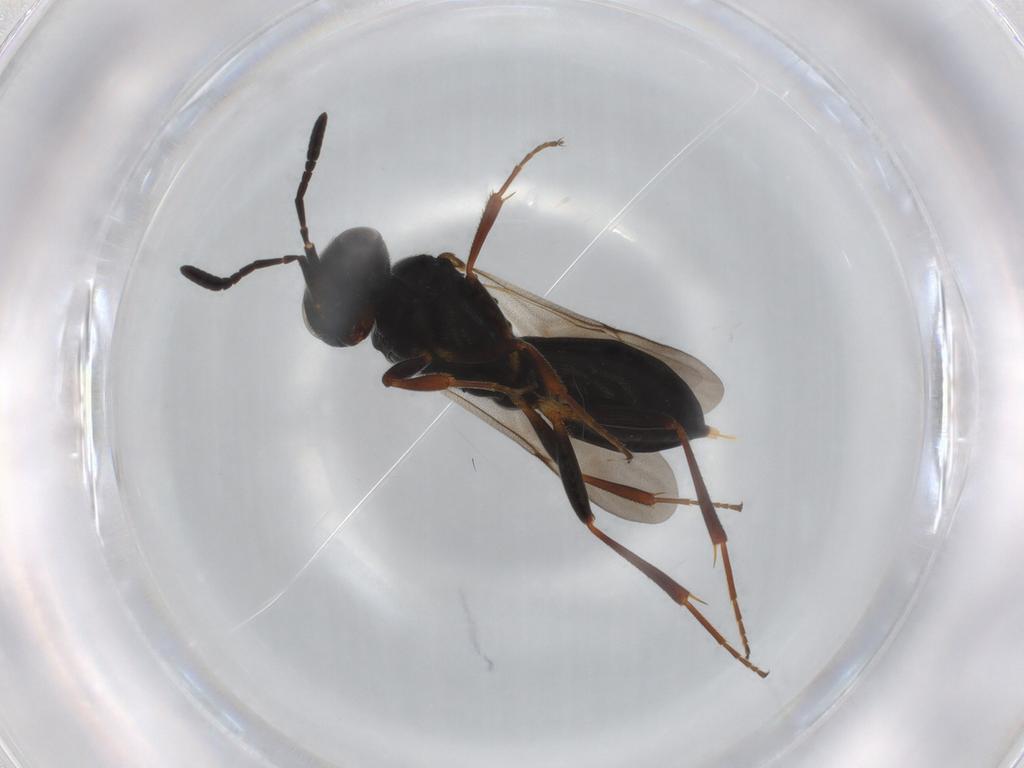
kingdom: Animalia
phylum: Arthropoda
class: Insecta
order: Hymenoptera
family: Scelionidae
